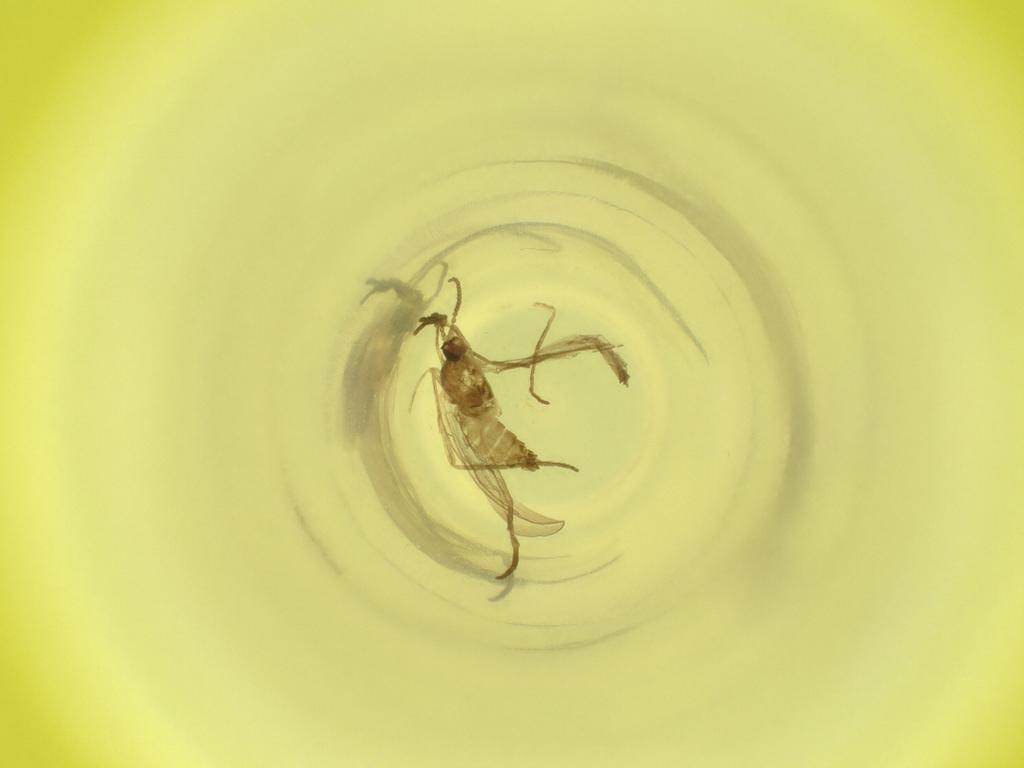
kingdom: Animalia
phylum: Arthropoda
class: Insecta
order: Diptera
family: Cecidomyiidae
